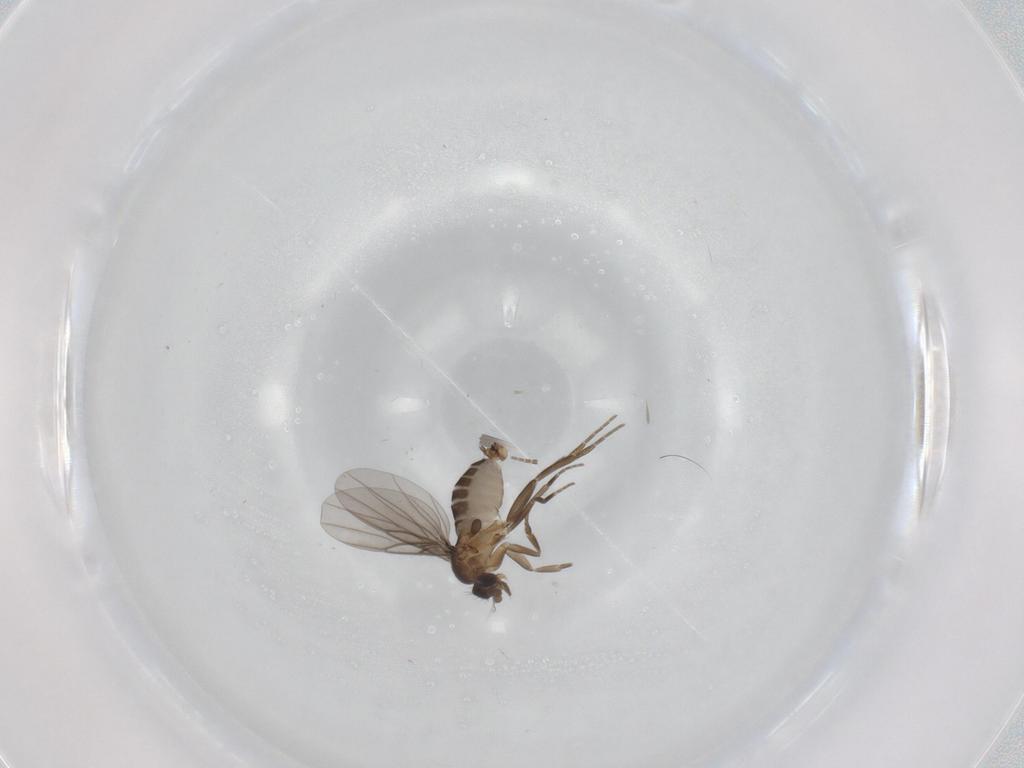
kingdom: Animalia
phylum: Arthropoda
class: Insecta
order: Diptera
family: Phoridae
